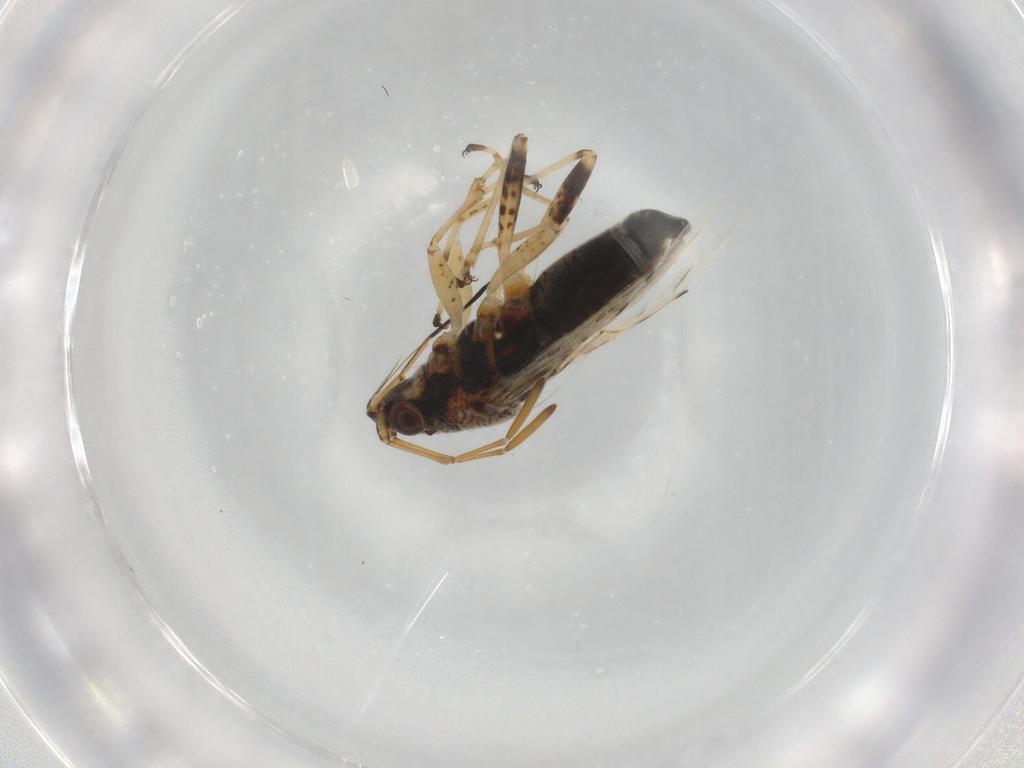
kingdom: Animalia
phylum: Arthropoda
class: Insecta
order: Hemiptera
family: Lygaeidae
